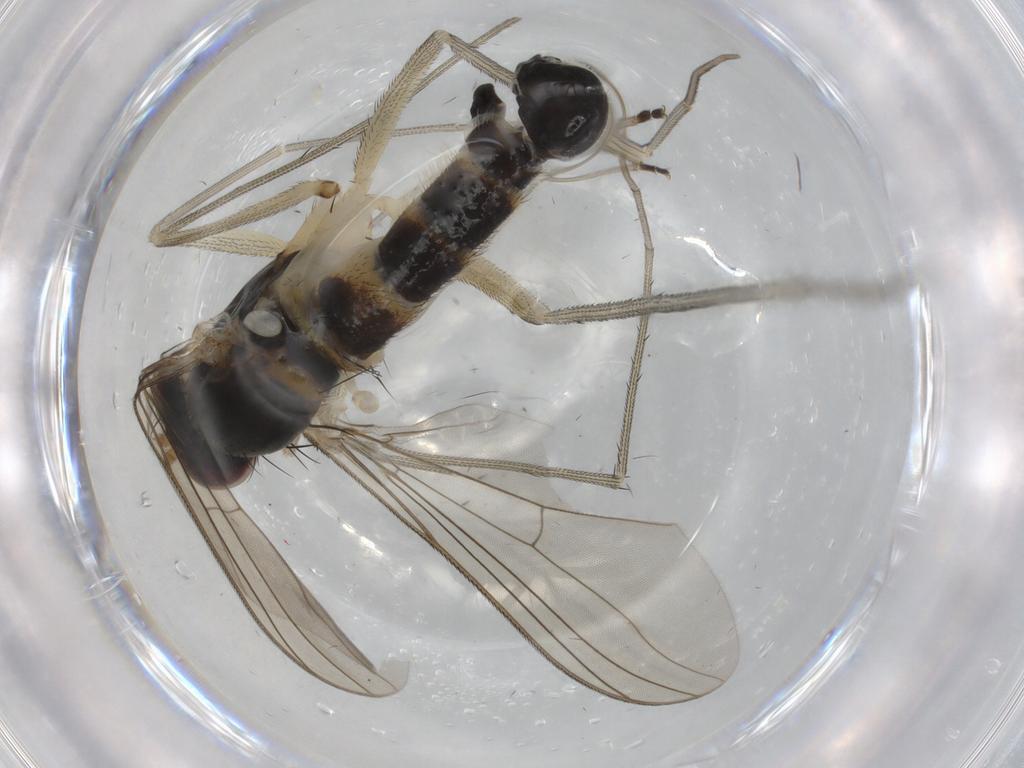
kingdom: Animalia
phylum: Arthropoda
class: Insecta
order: Diptera
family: Dolichopodidae
